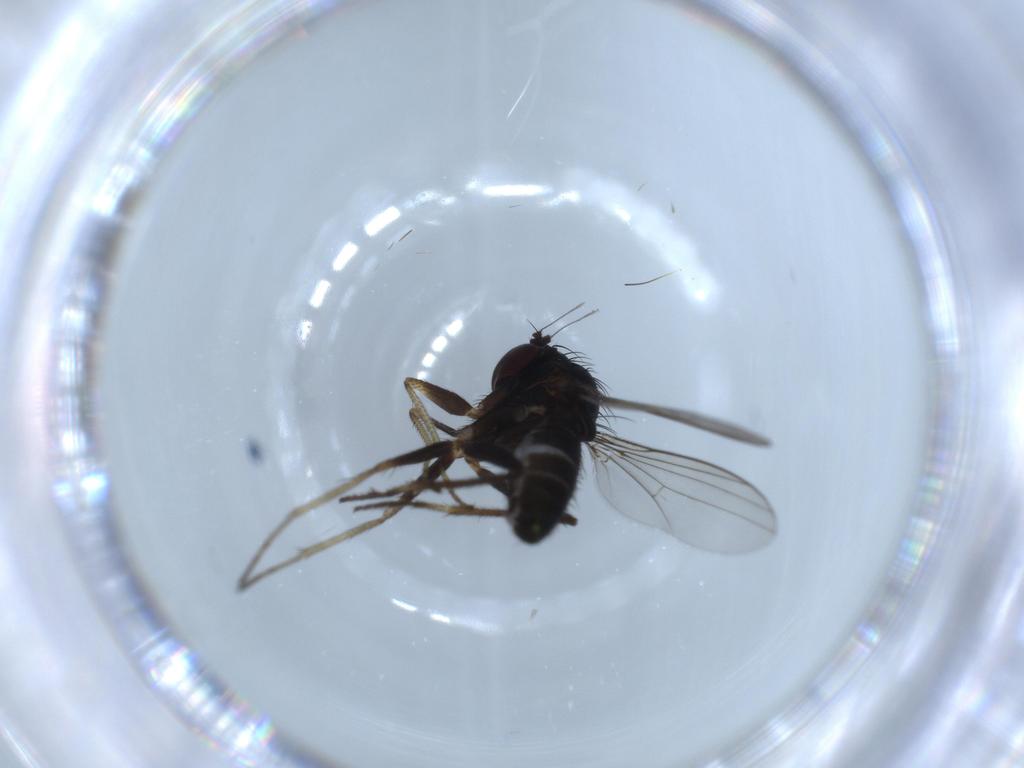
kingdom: Animalia
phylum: Arthropoda
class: Insecta
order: Diptera
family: Dolichopodidae
